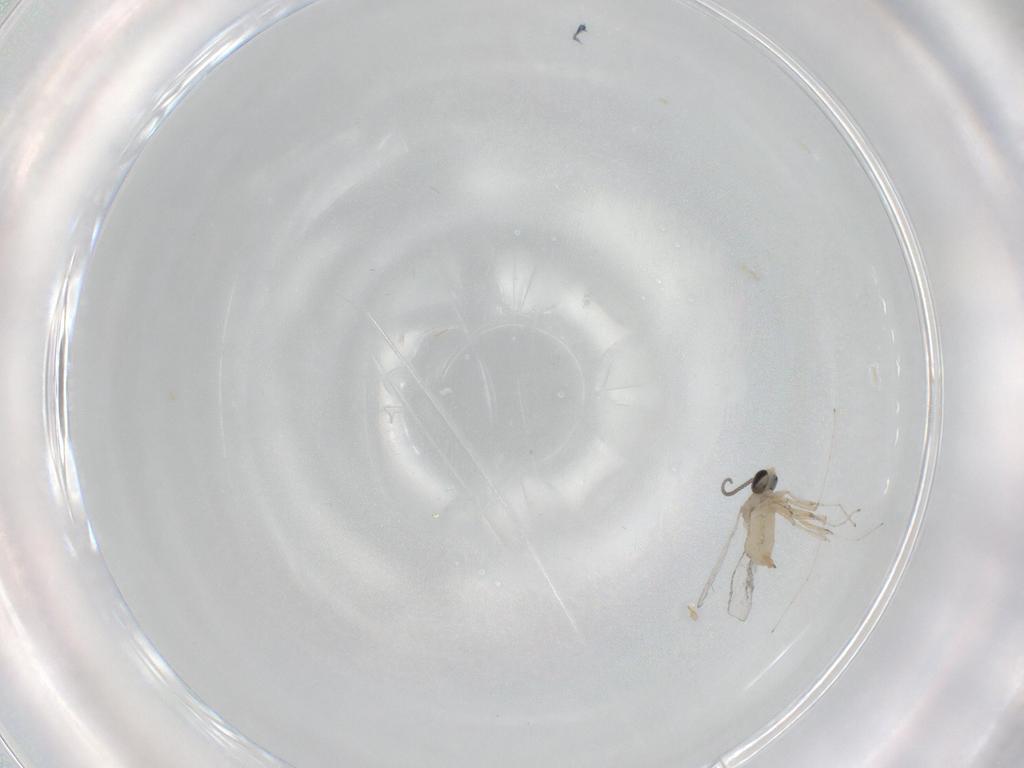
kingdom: Animalia
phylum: Arthropoda
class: Insecta
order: Diptera
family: Cecidomyiidae
